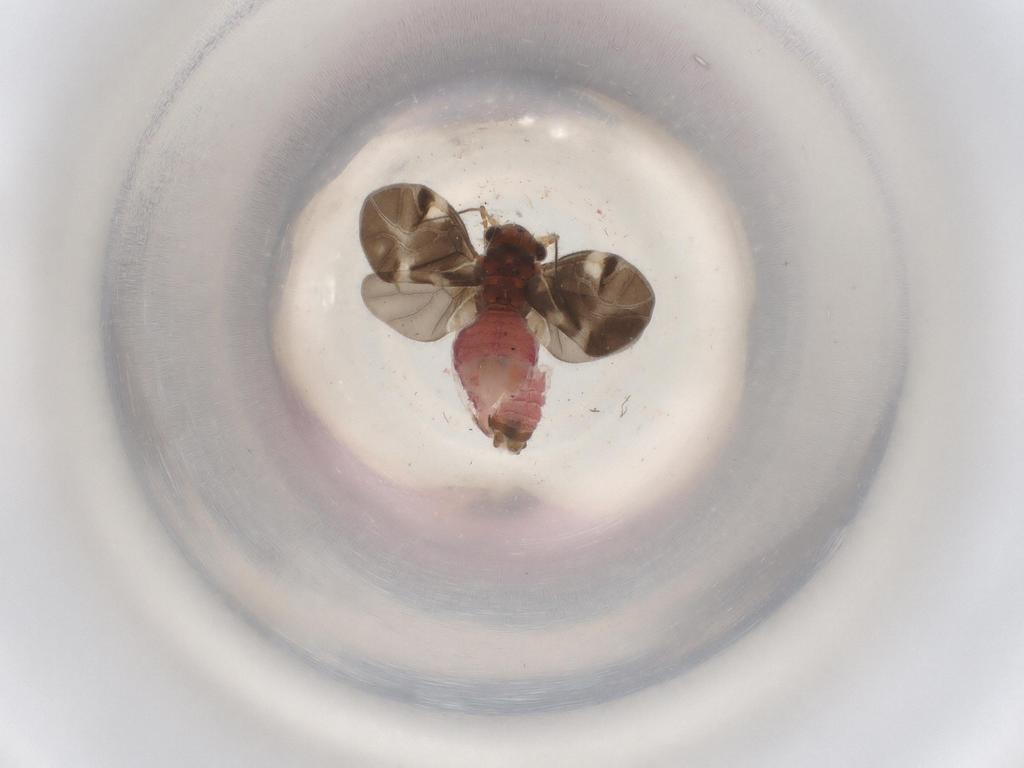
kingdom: Animalia
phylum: Arthropoda
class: Insecta
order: Hymenoptera
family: Formicidae
